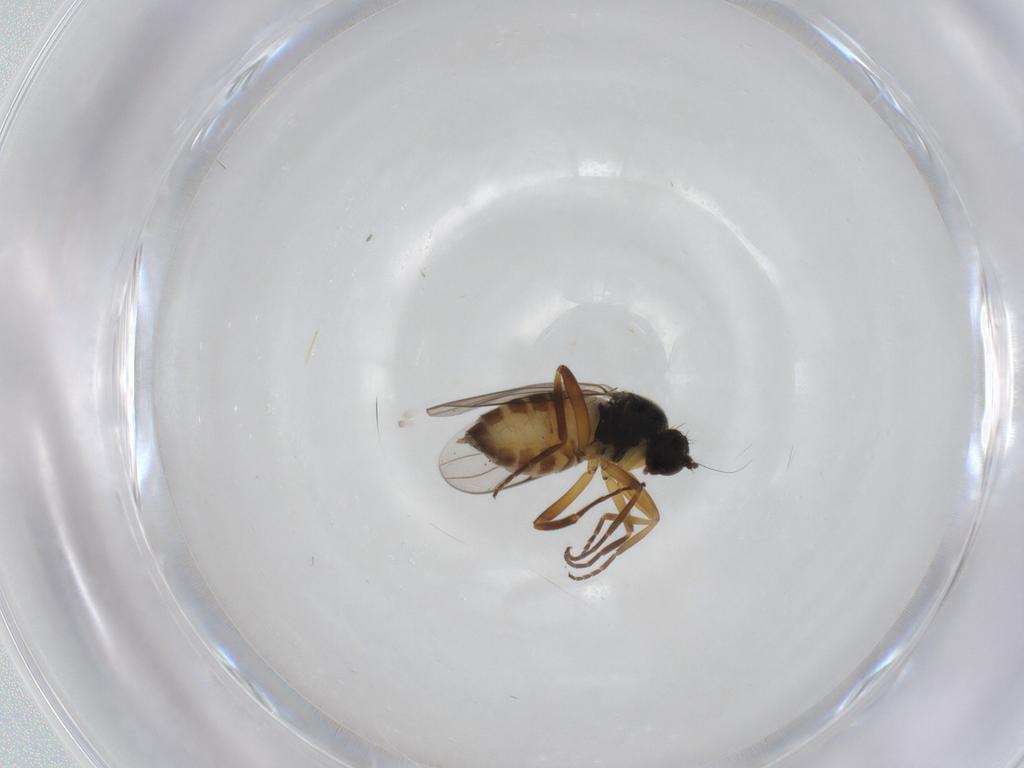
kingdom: Animalia
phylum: Arthropoda
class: Insecta
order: Diptera
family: Hybotidae
